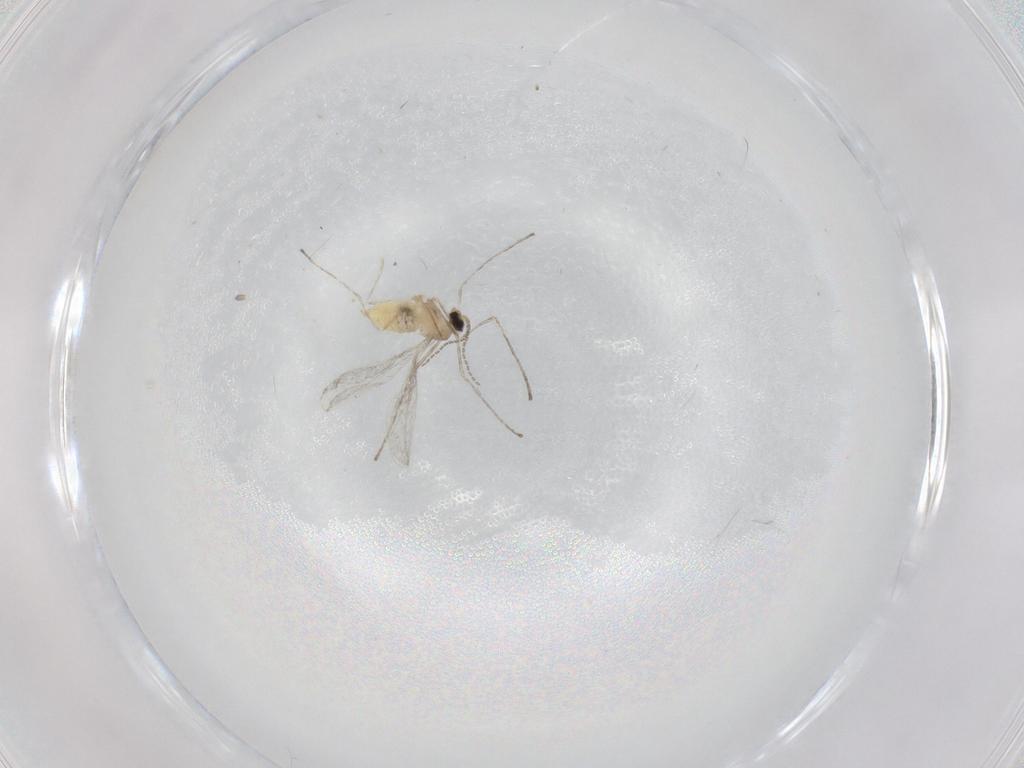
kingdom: Animalia
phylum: Arthropoda
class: Insecta
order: Diptera
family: Cecidomyiidae
